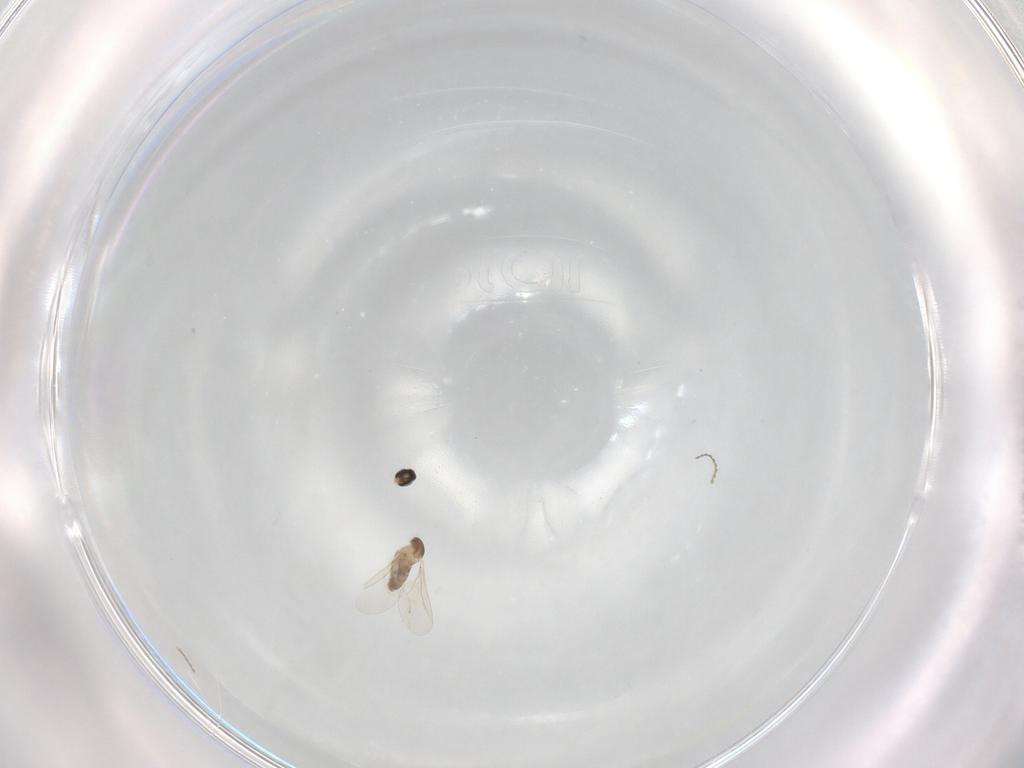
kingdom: Animalia
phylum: Arthropoda
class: Insecta
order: Diptera
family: Cecidomyiidae
